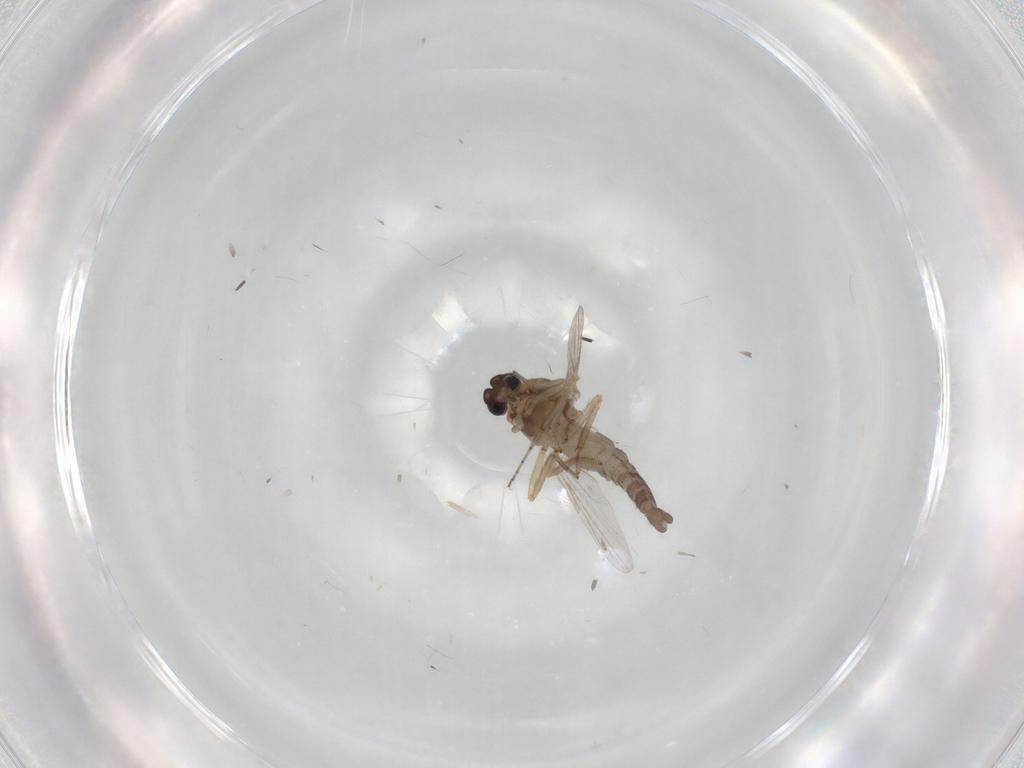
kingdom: Animalia
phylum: Arthropoda
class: Insecta
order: Diptera
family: Ceratopogonidae
